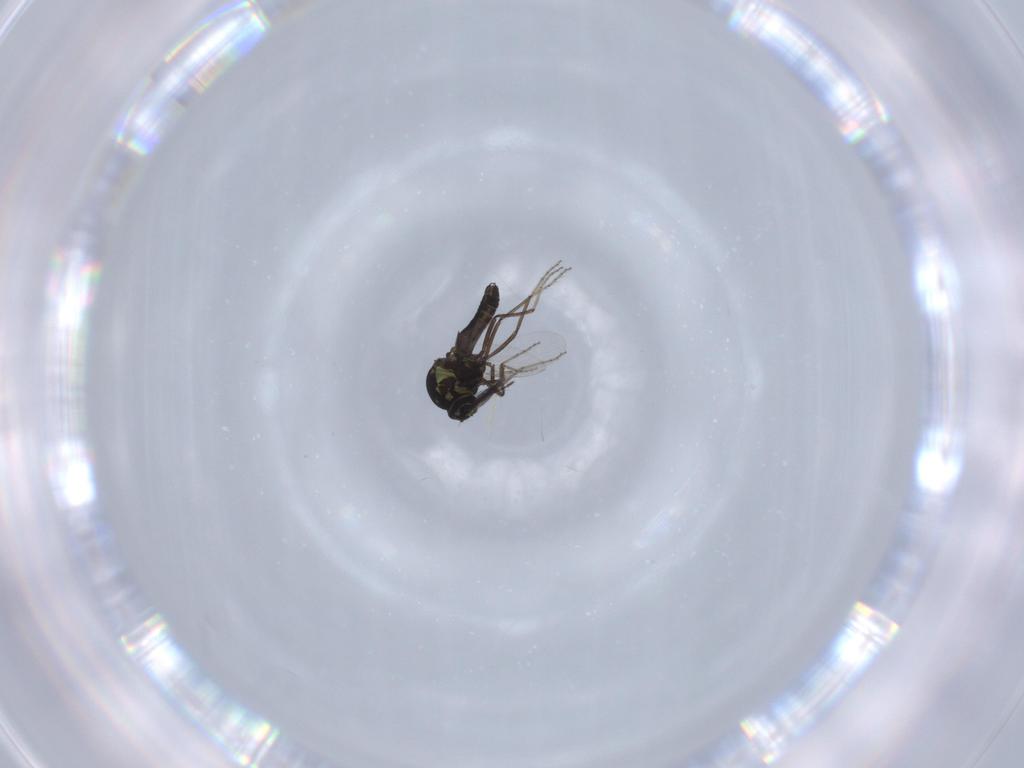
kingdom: Animalia
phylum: Arthropoda
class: Insecta
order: Diptera
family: Ceratopogonidae
